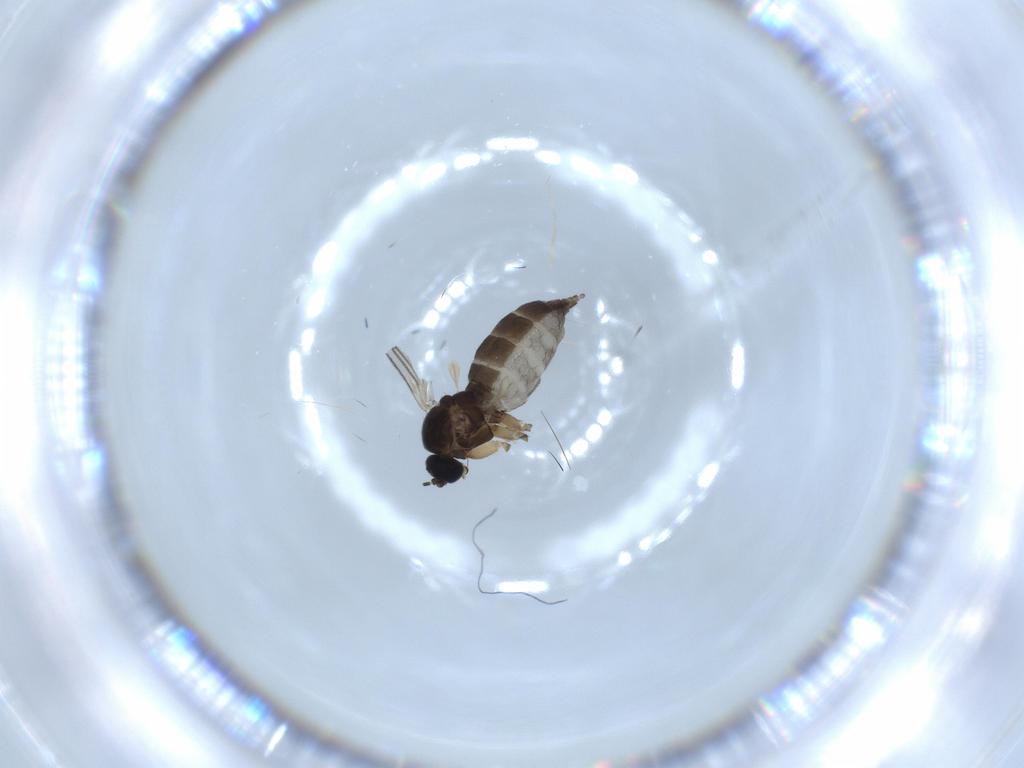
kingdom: Animalia
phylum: Arthropoda
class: Insecta
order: Diptera
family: Sciaridae
